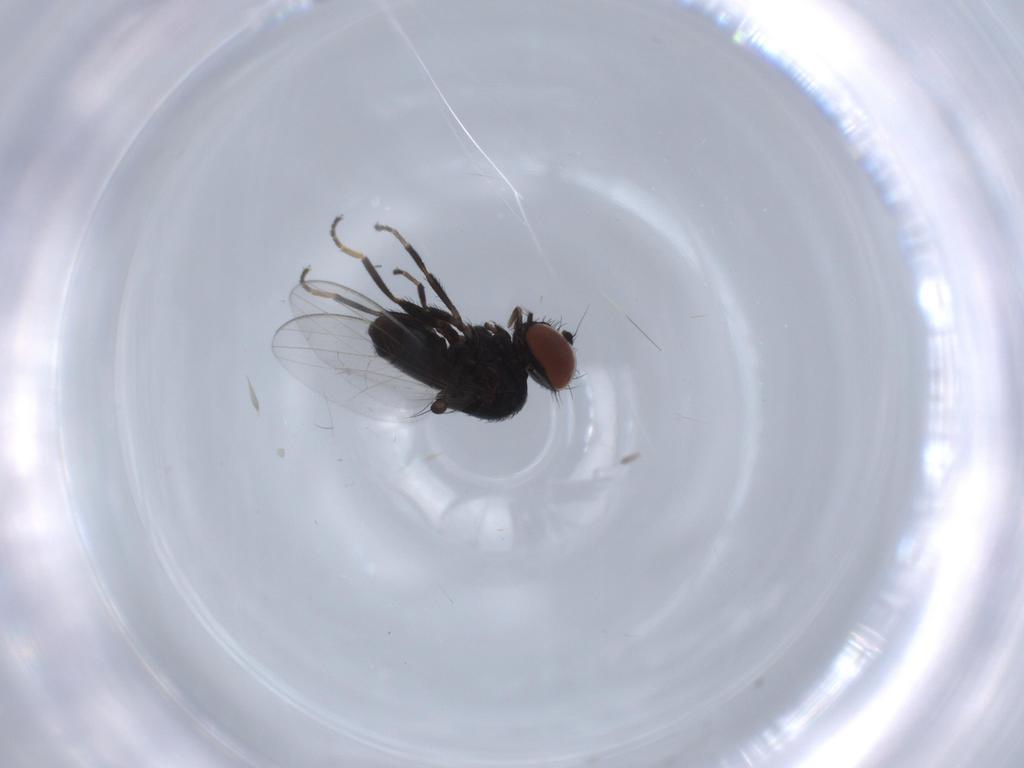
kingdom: Animalia
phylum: Arthropoda
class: Insecta
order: Diptera
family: Milichiidae
